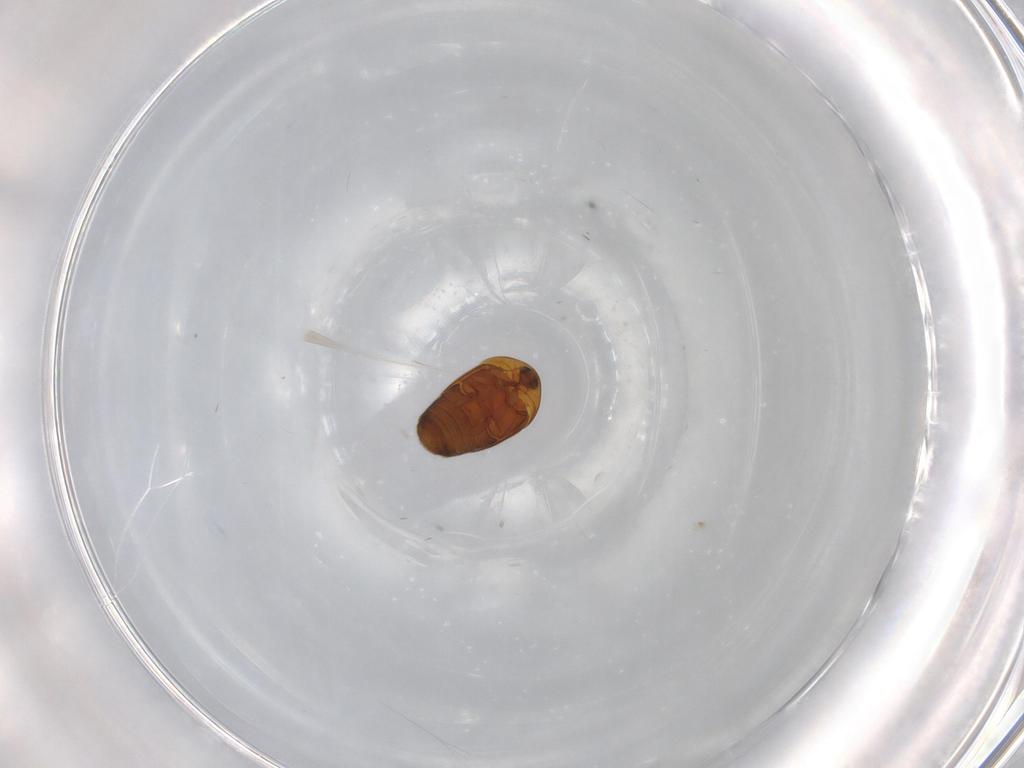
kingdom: Animalia
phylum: Arthropoda
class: Insecta
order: Coleoptera
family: Corylophidae
